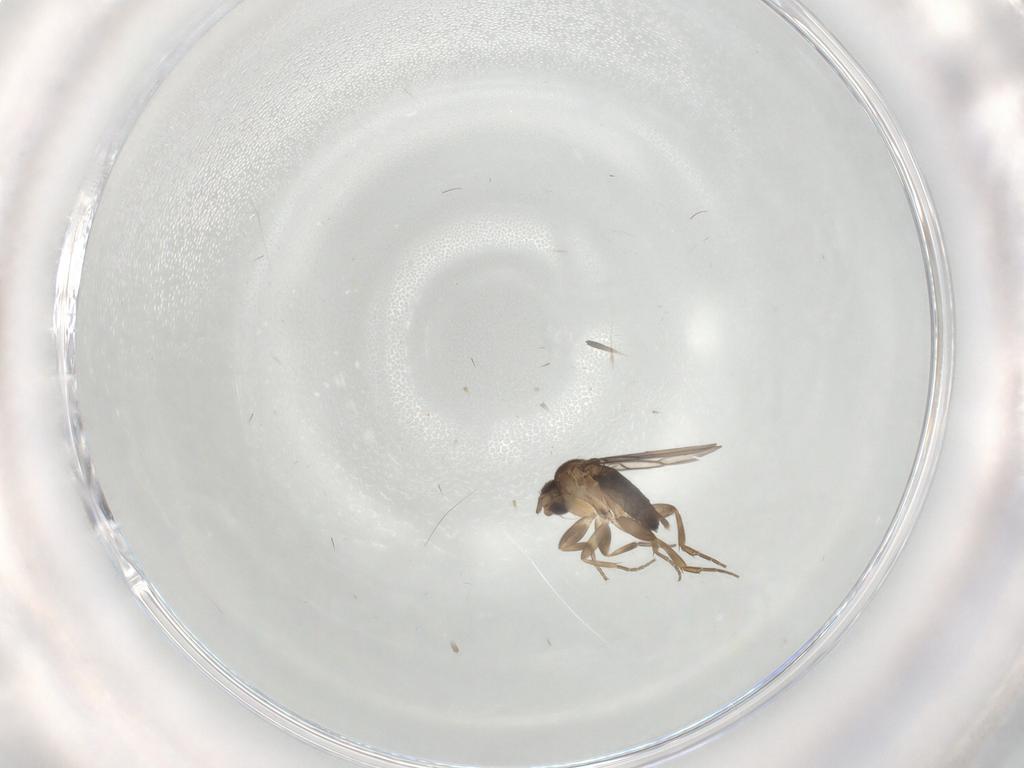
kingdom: Animalia
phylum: Arthropoda
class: Insecta
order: Diptera
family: Phoridae
